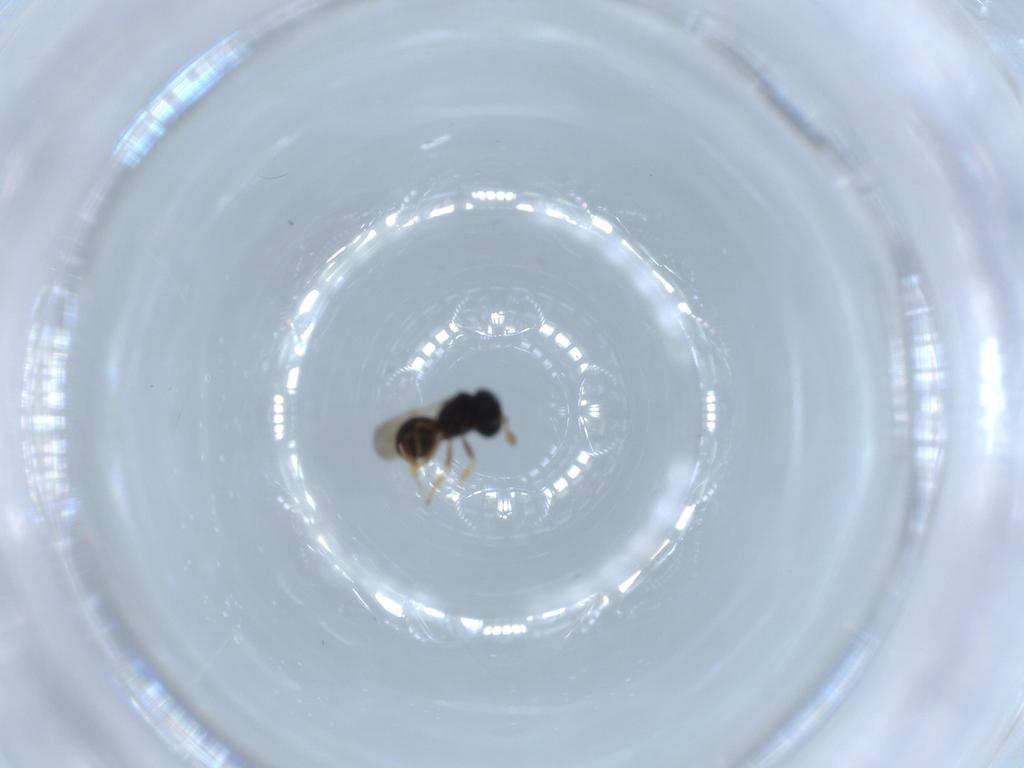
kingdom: Animalia
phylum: Arthropoda
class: Insecta
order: Hymenoptera
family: Scelionidae
